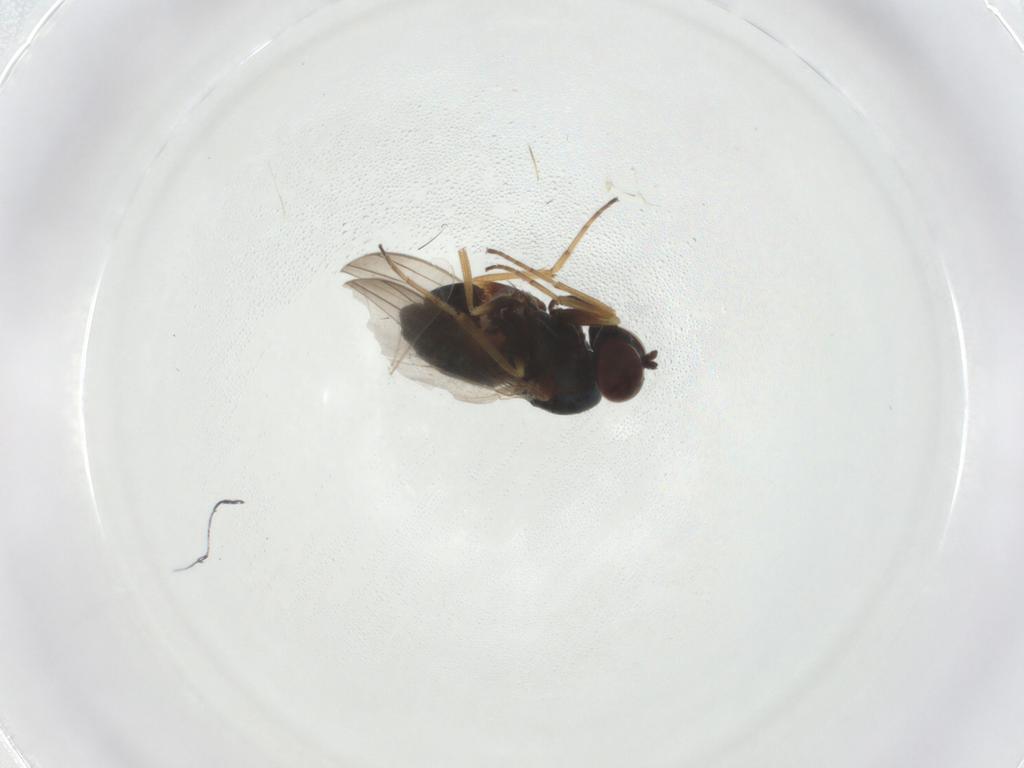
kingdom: Animalia
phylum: Arthropoda
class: Insecta
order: Diptera
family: Dolichopodidae
